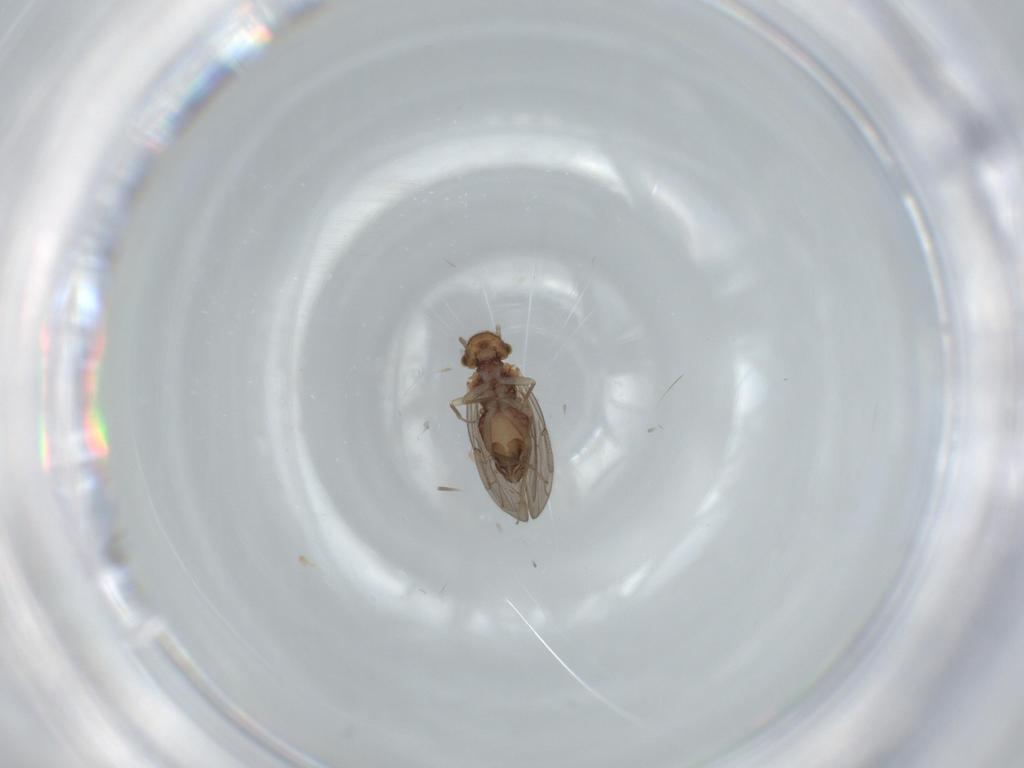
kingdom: Animalia
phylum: Arthropoda
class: Insecta
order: Psocodea
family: Ectopsocidae
